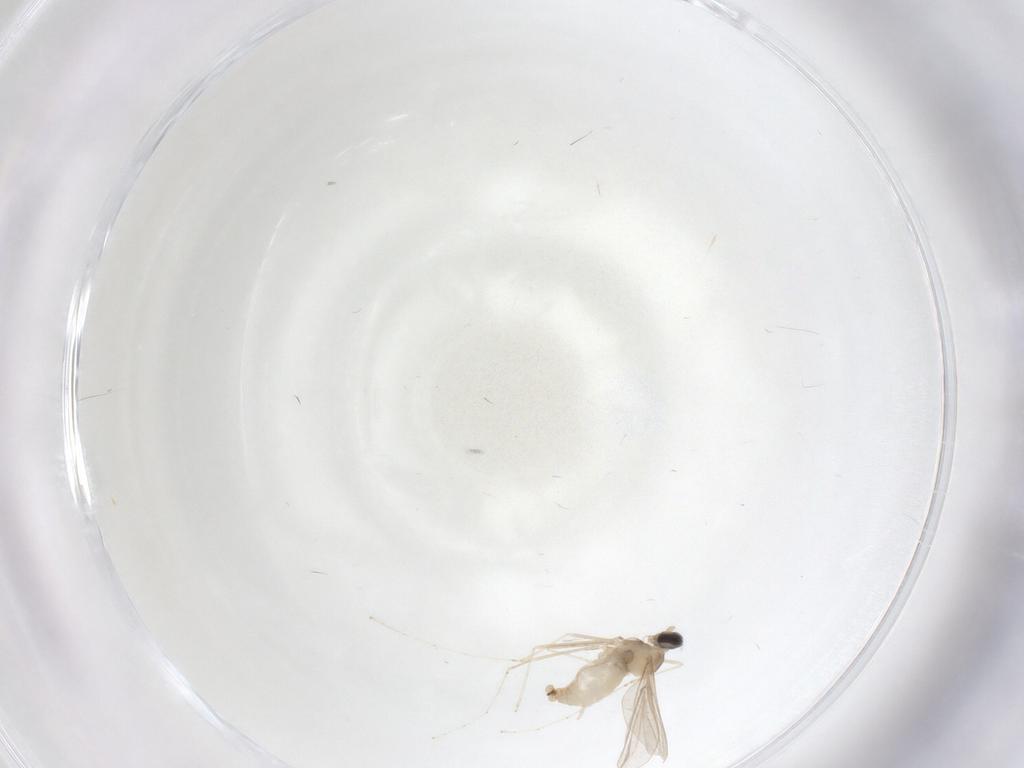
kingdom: Animalia
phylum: Arthropoda
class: Insecta
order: Diptera
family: Cecidomyiidae
